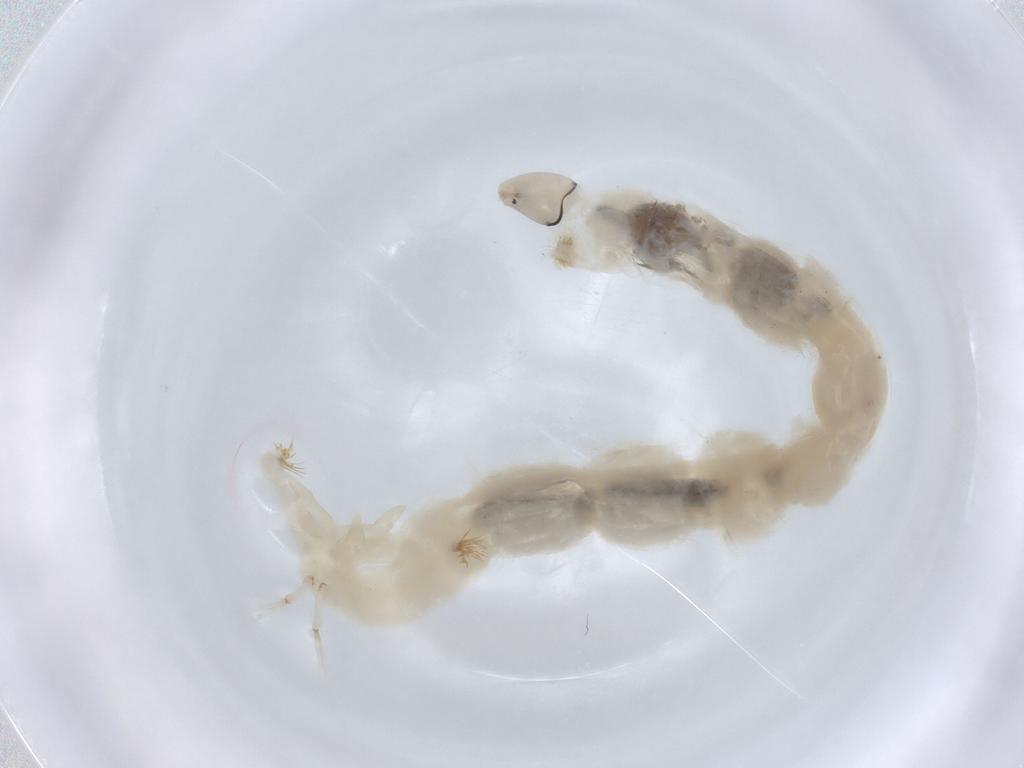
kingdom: Animalia
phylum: Arthropoda
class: Insecta
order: Diptera
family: Chironomidae
